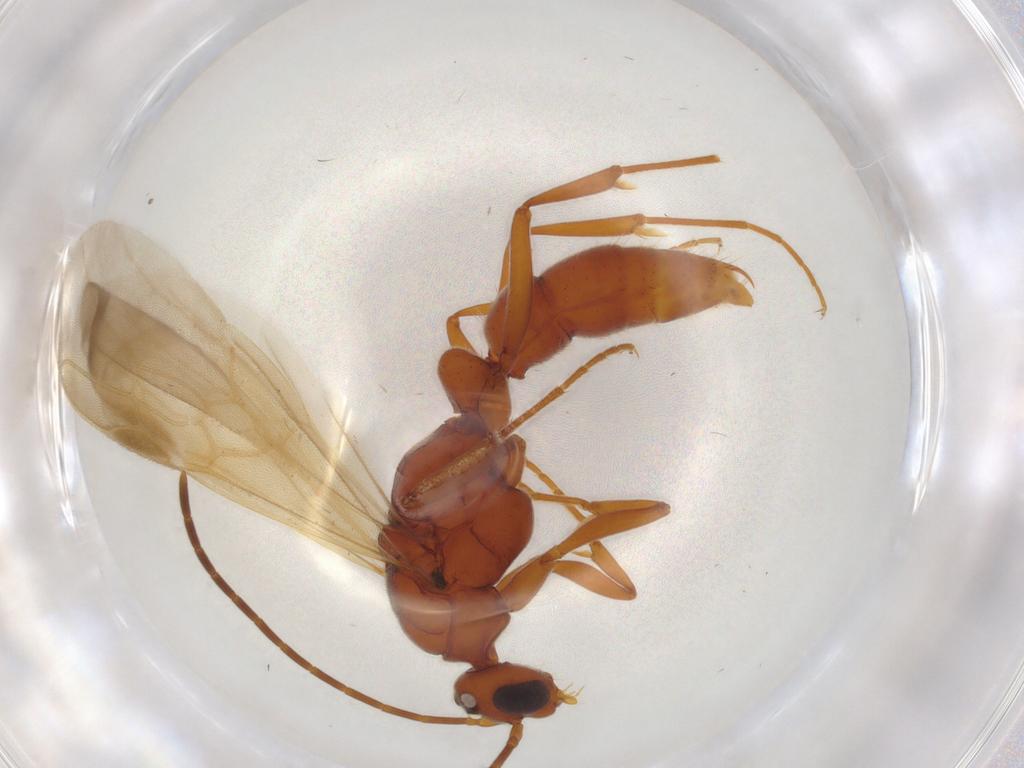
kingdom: Animalia
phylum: Arthropoda
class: Insecta
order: Hymenoptera
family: Formicidae
